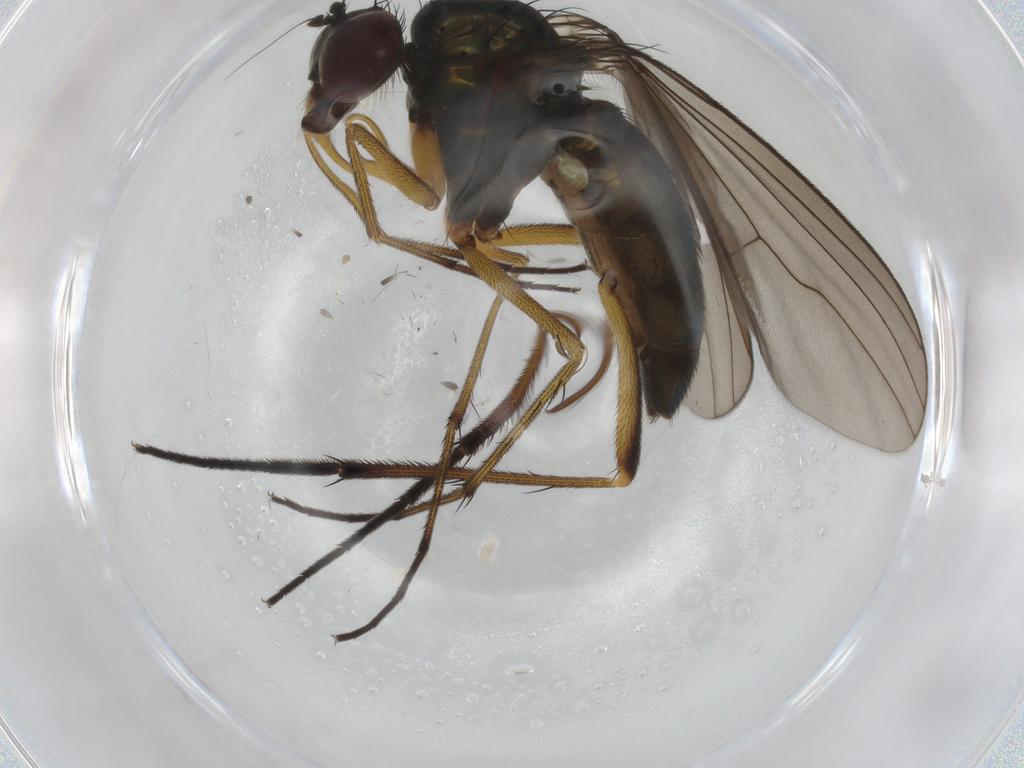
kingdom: Animalia
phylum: Arthropoda
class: Insecta
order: Diptera
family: Dolichopodidae
